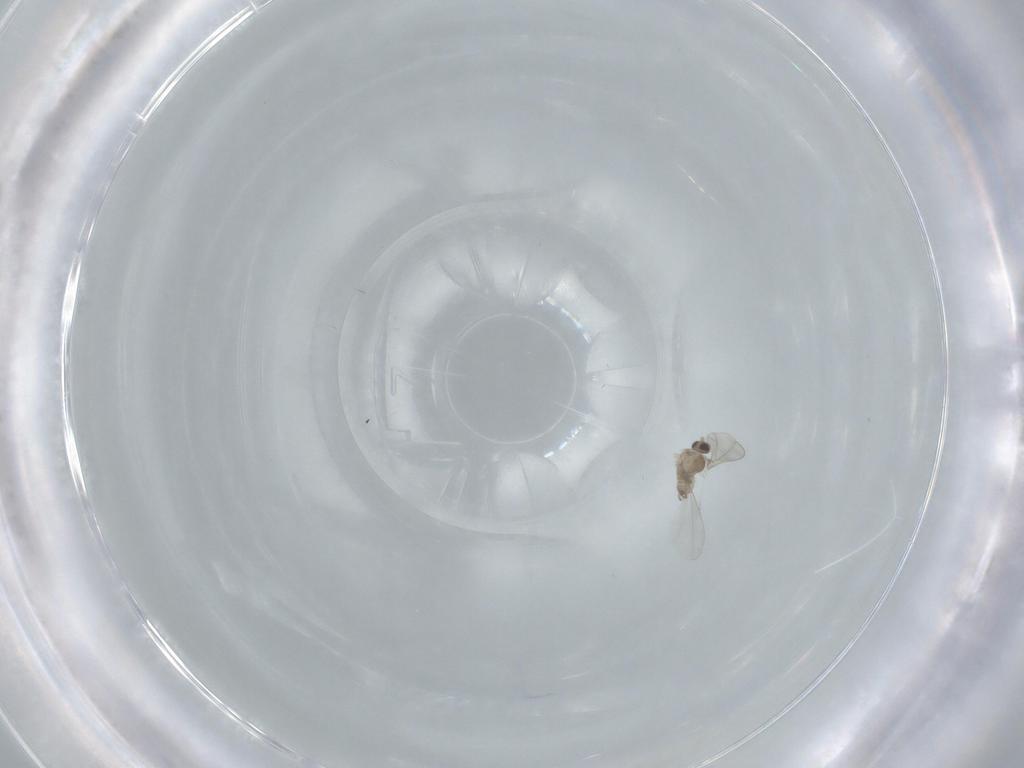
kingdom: Animalia
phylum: Arthropoda
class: Insecta
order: Diptera
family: Cecidomyiidae
